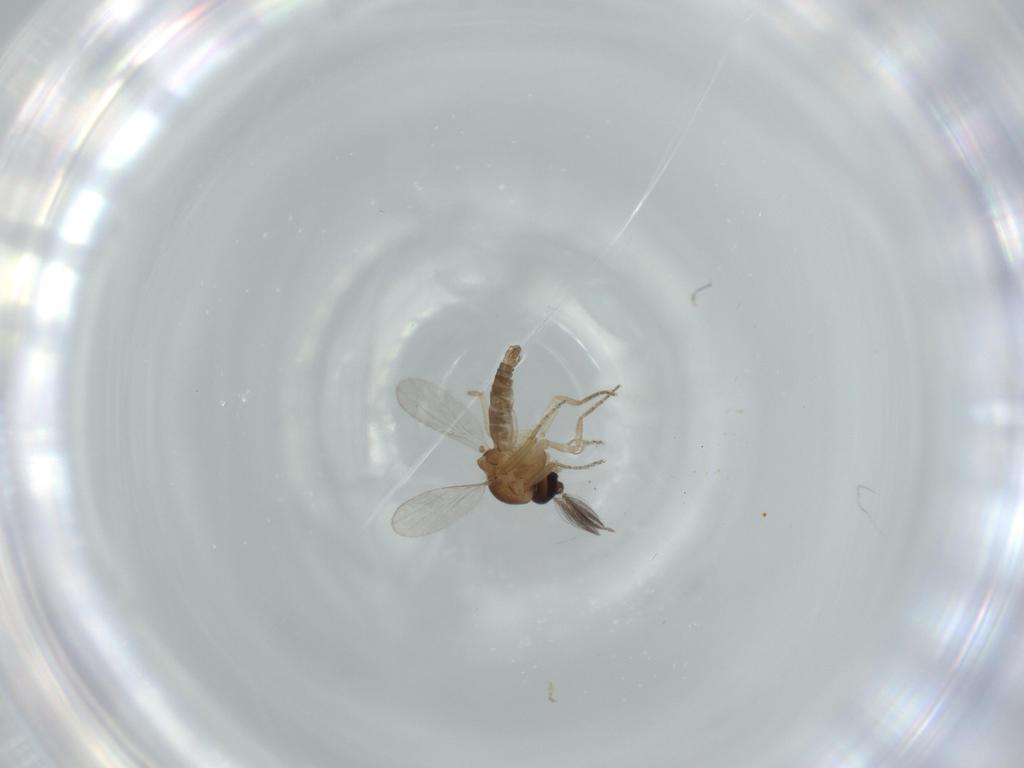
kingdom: Animalia
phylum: Arthropoda
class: Insecta
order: Diptera
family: Ceratopogonidae
